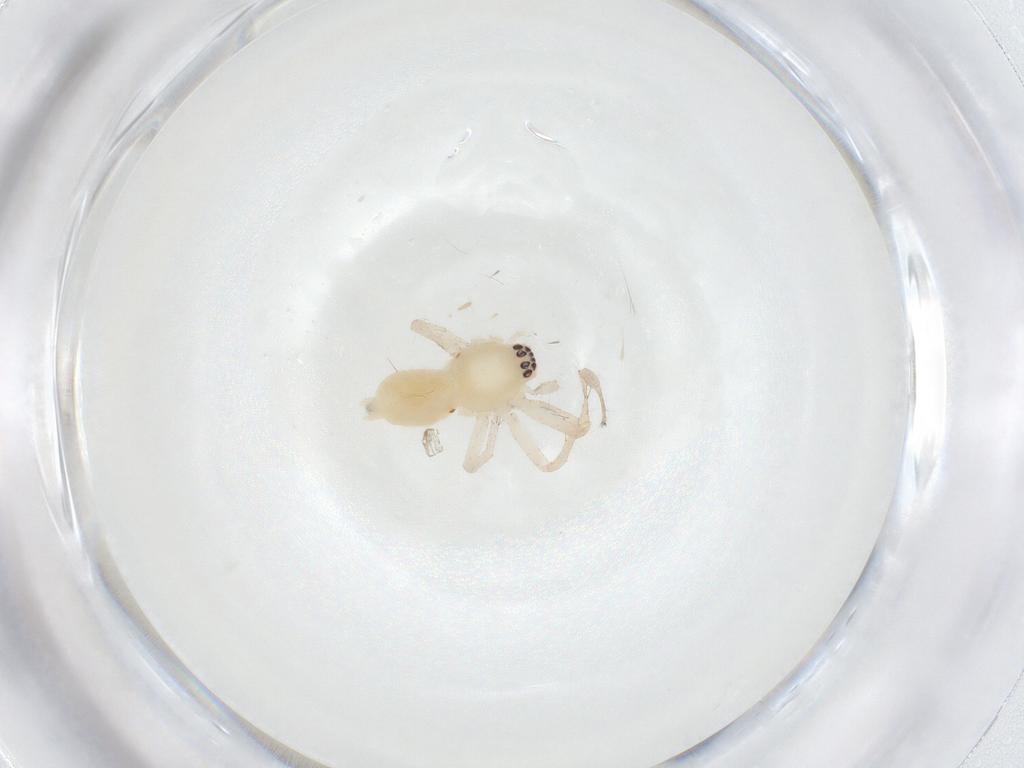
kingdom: Animalia
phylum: Arthropoda
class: Arachnida
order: Araneae
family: Anyphaenidae
